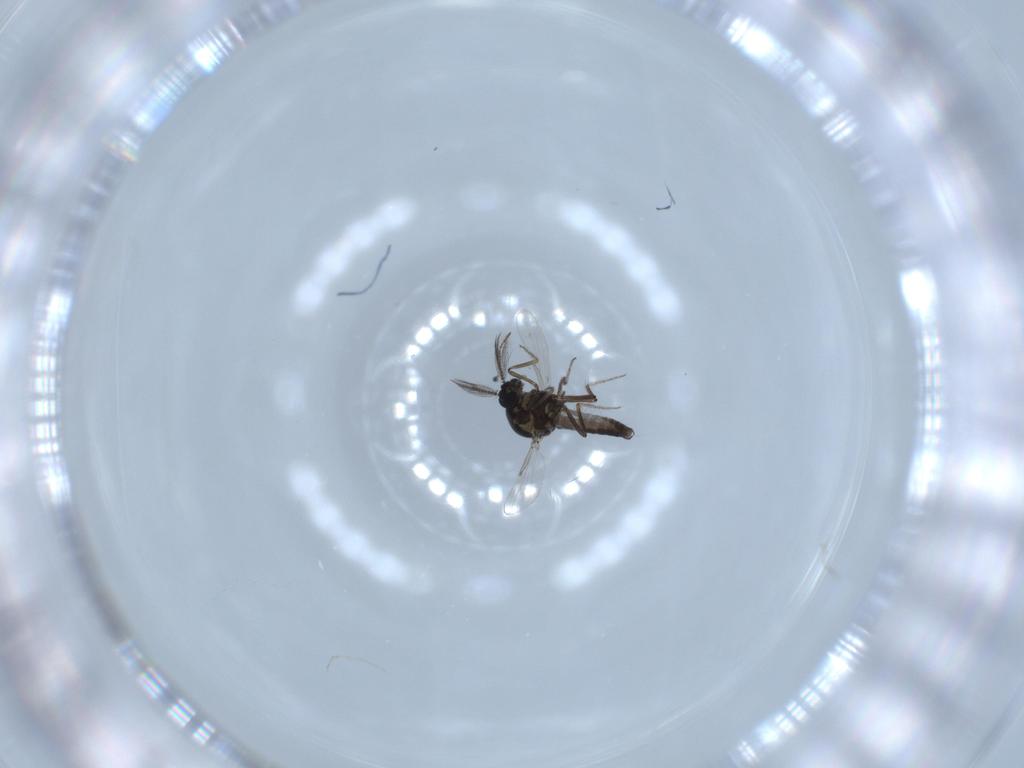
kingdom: Animalia
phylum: Arthropoda
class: Insecta
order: Diptera
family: Ceratopogonidae
